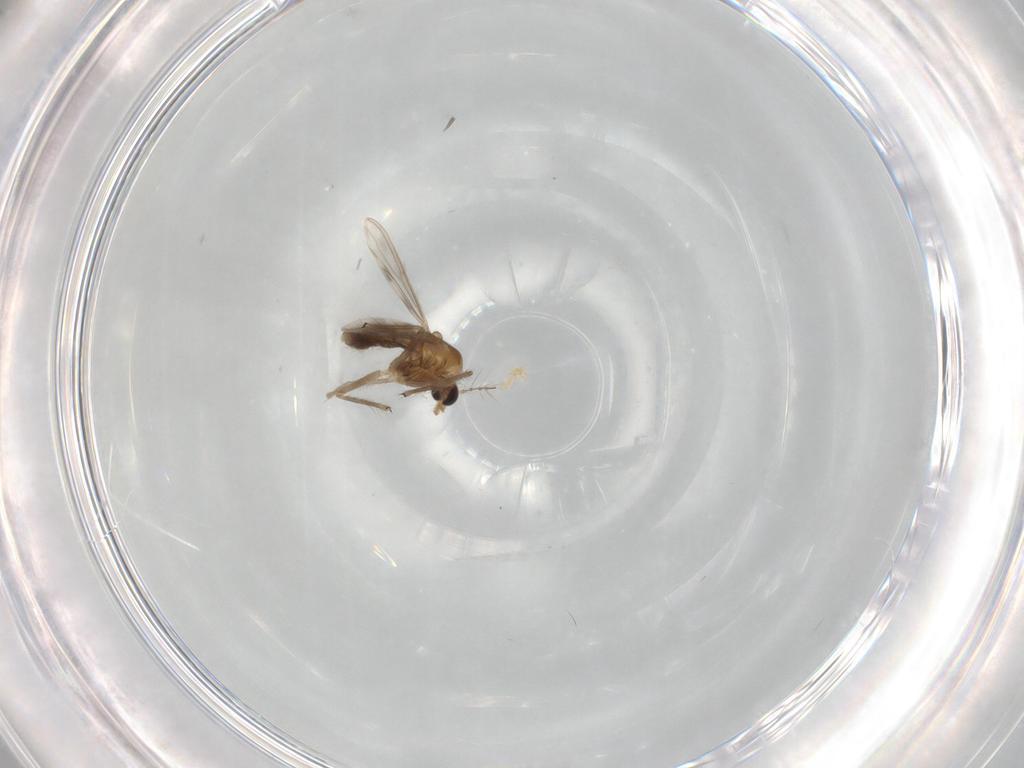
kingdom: Animalia
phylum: Arthropoda
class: Insecta
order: Diptera
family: Chironomidae
